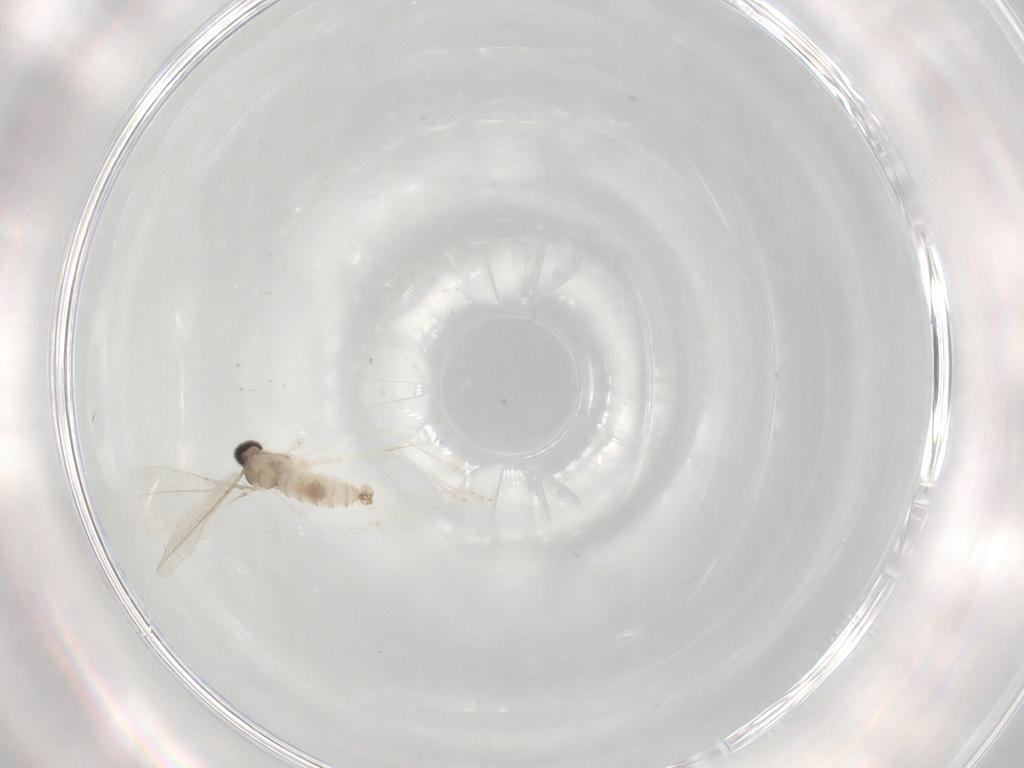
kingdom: Animalia
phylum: Arthropoda
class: Insecta
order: Diptera
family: Cecidomyiidae
